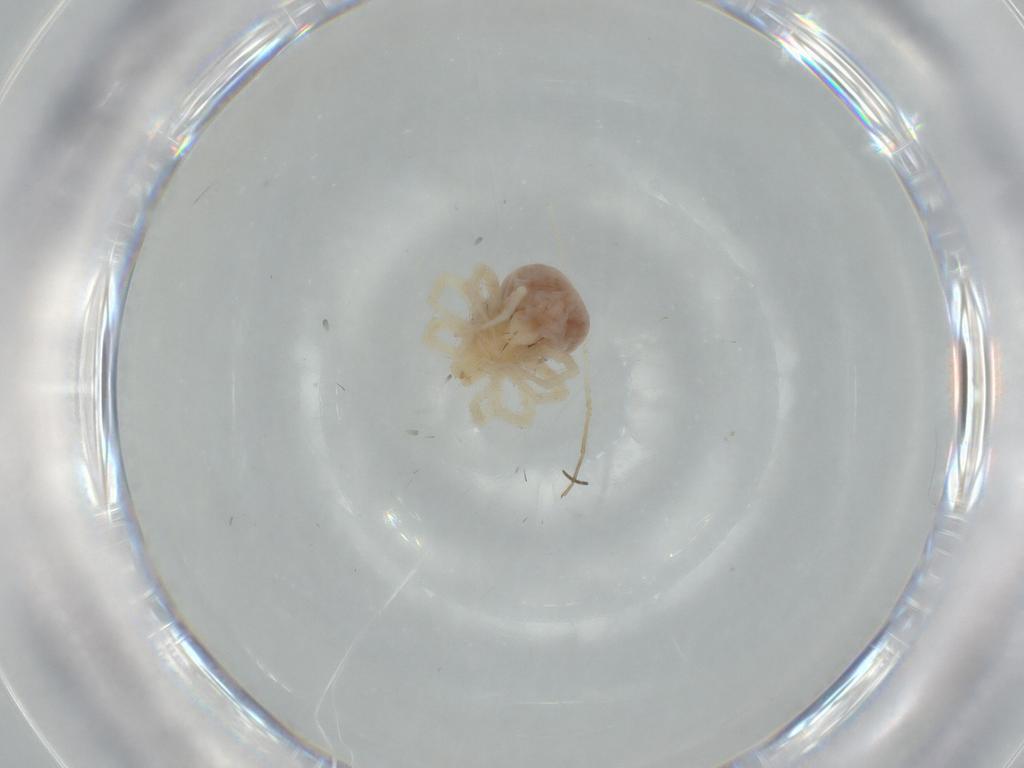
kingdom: Animalia
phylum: Arthropoda
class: Arachnida
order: Trombidiformes
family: Anystidae
